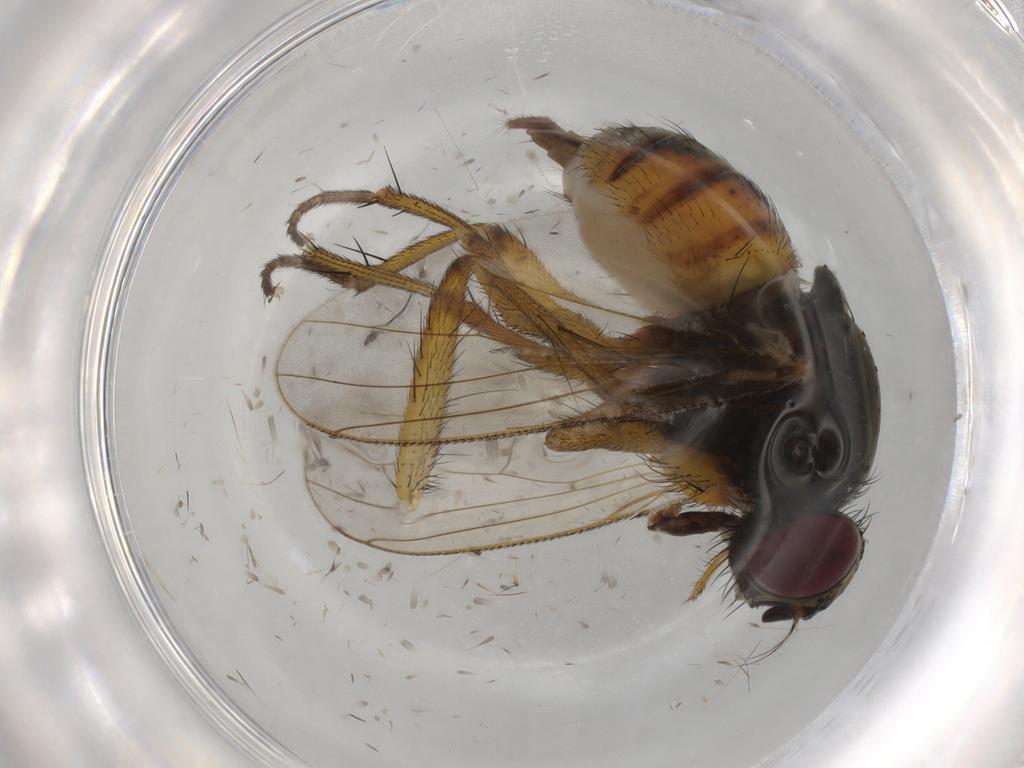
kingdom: Animalia
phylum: Arthropoda
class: Insecta
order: Diptera
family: Muscidae
